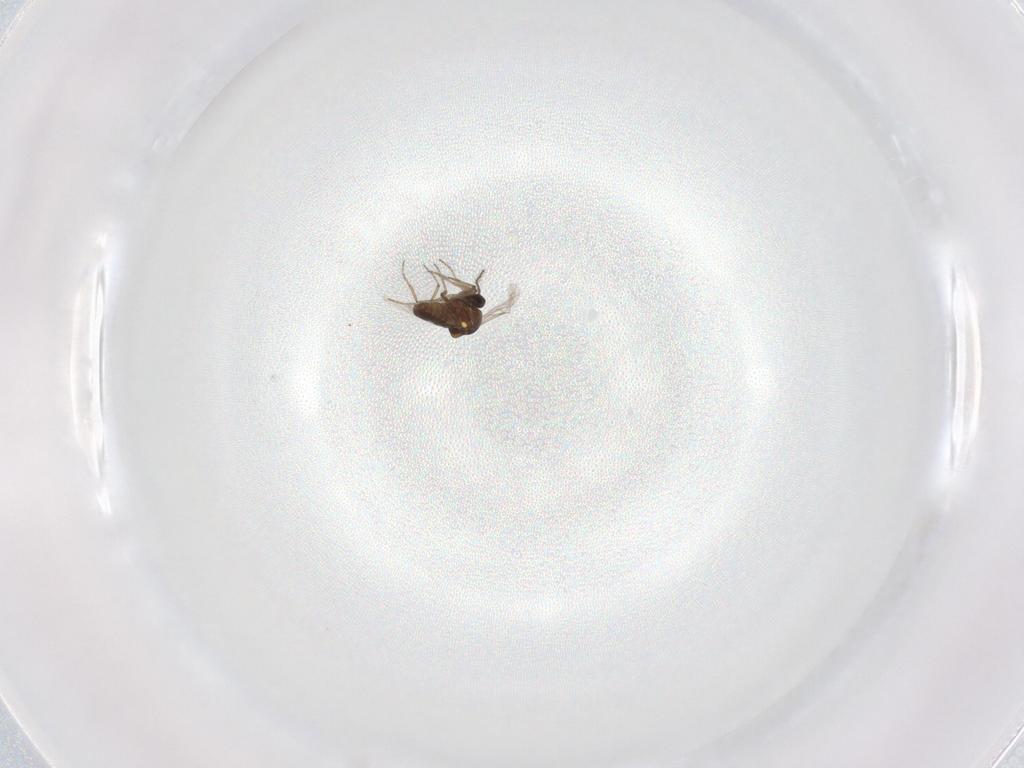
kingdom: Animalia
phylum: Arthropoda
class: Insecta
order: Diptera
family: Ceratopogonidae
